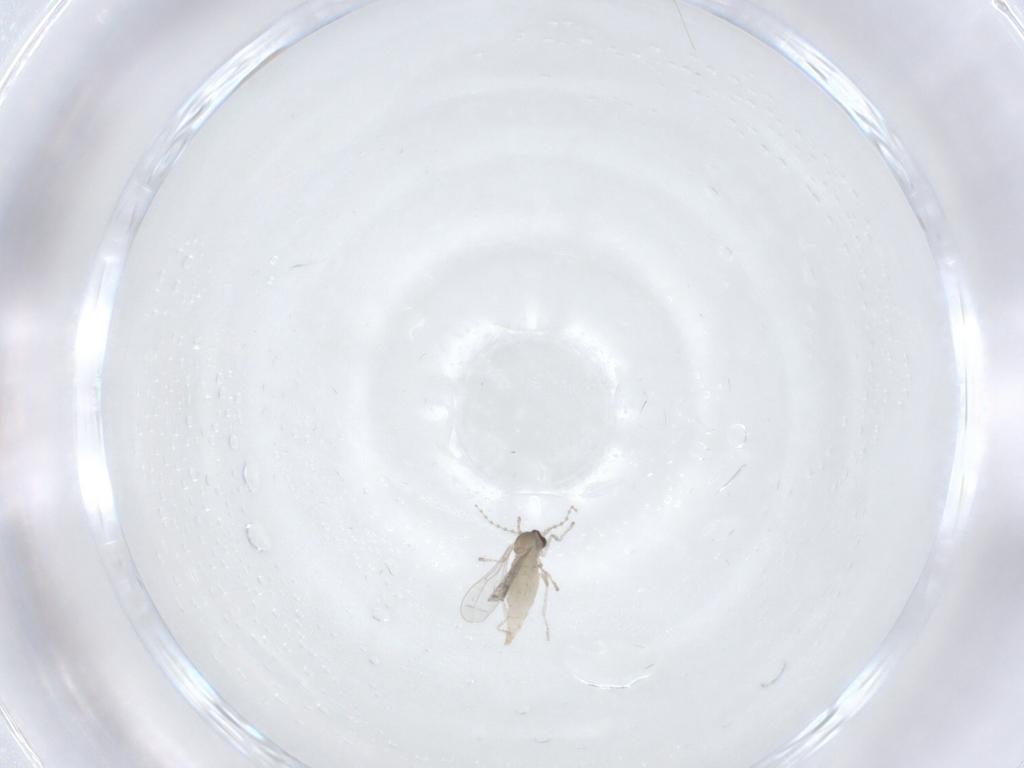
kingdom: Animalia
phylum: Arthropoda
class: Insecta
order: Diptera
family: Cecidomyiidae
